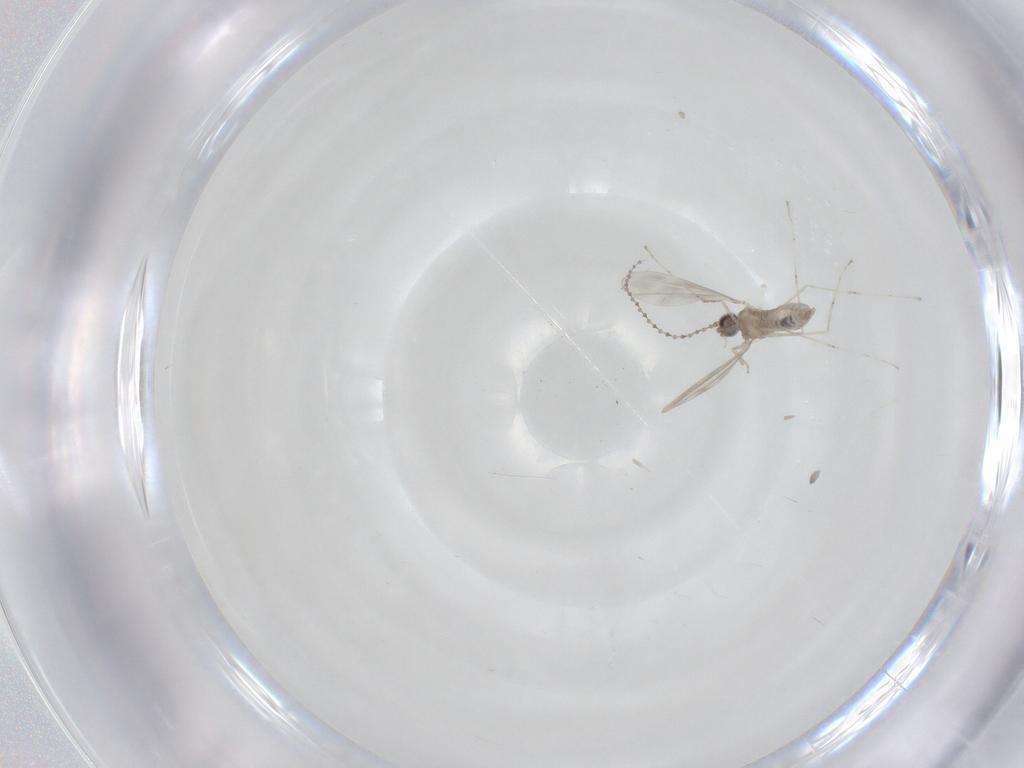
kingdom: Animalia
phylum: Arthropoda
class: Insecta
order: Diptera
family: Cecidomyiidae
